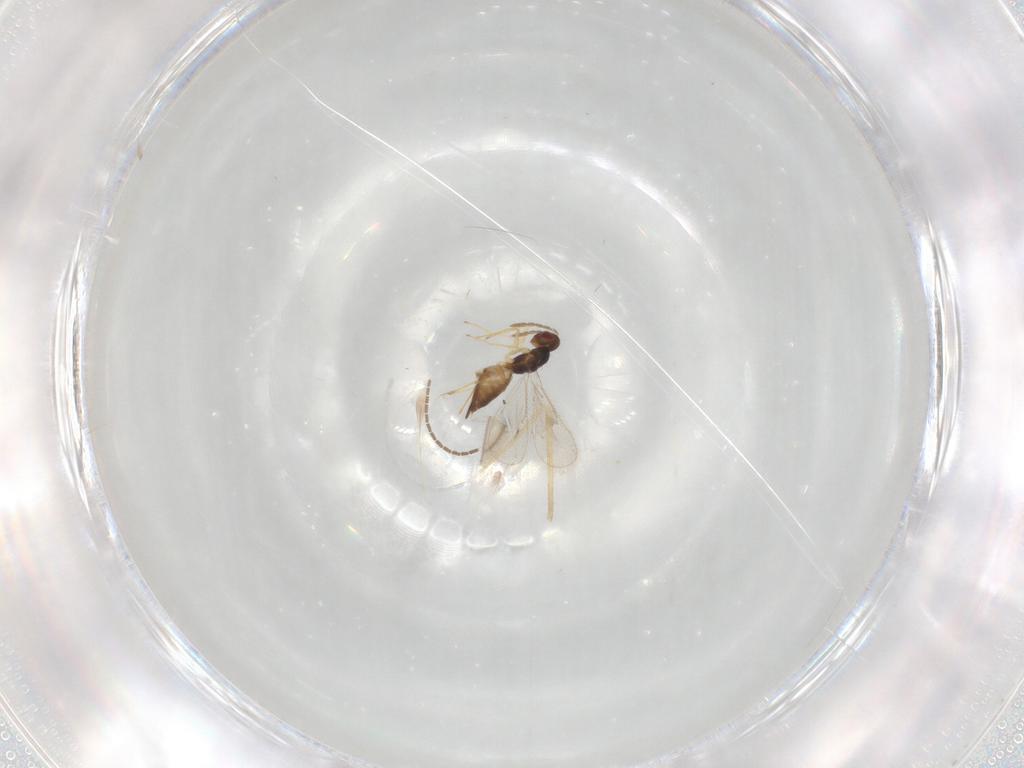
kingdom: Animalia
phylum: Arthropoda
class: Insecta
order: Hymenoptera
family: Eulophidae
